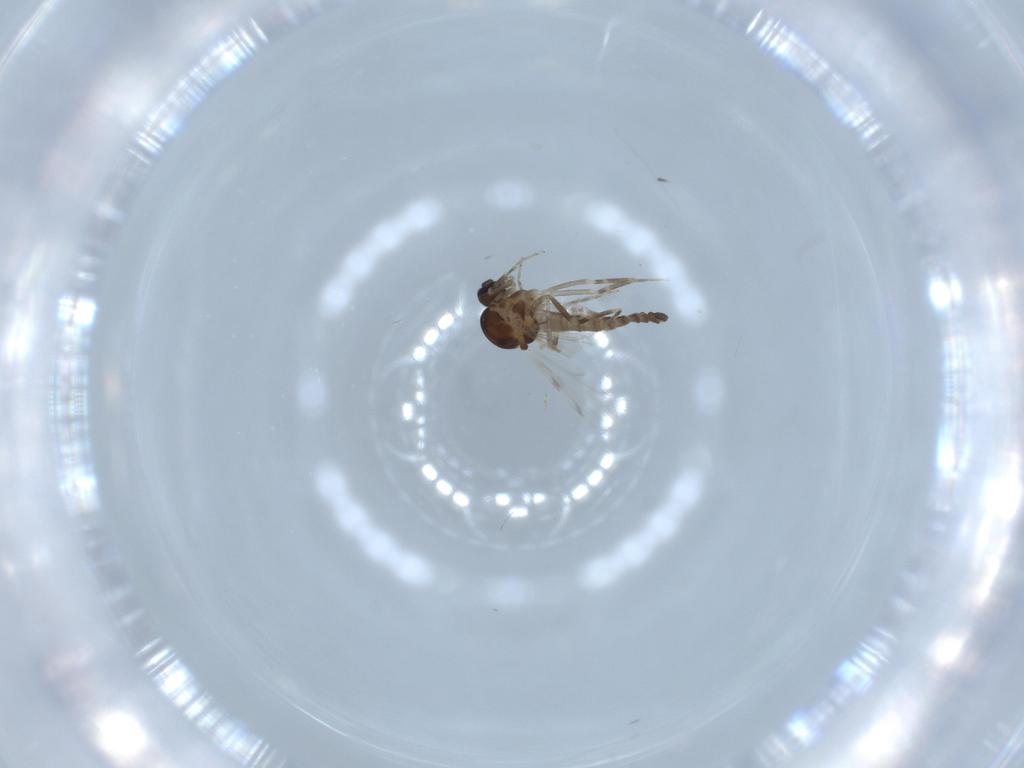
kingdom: Animalia
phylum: Arthropoda
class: Insecta
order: Diptera
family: Ceratopogonidae
